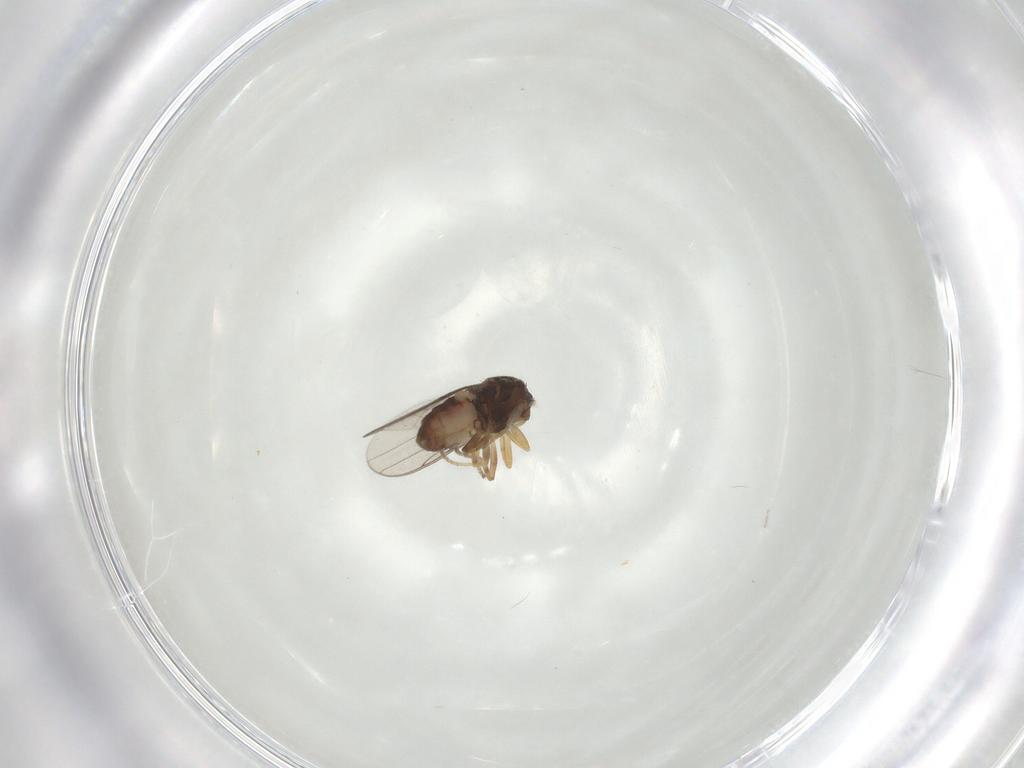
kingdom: Animalia
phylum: Arthropoda
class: Insecta
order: Diptera
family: Chloropidae
